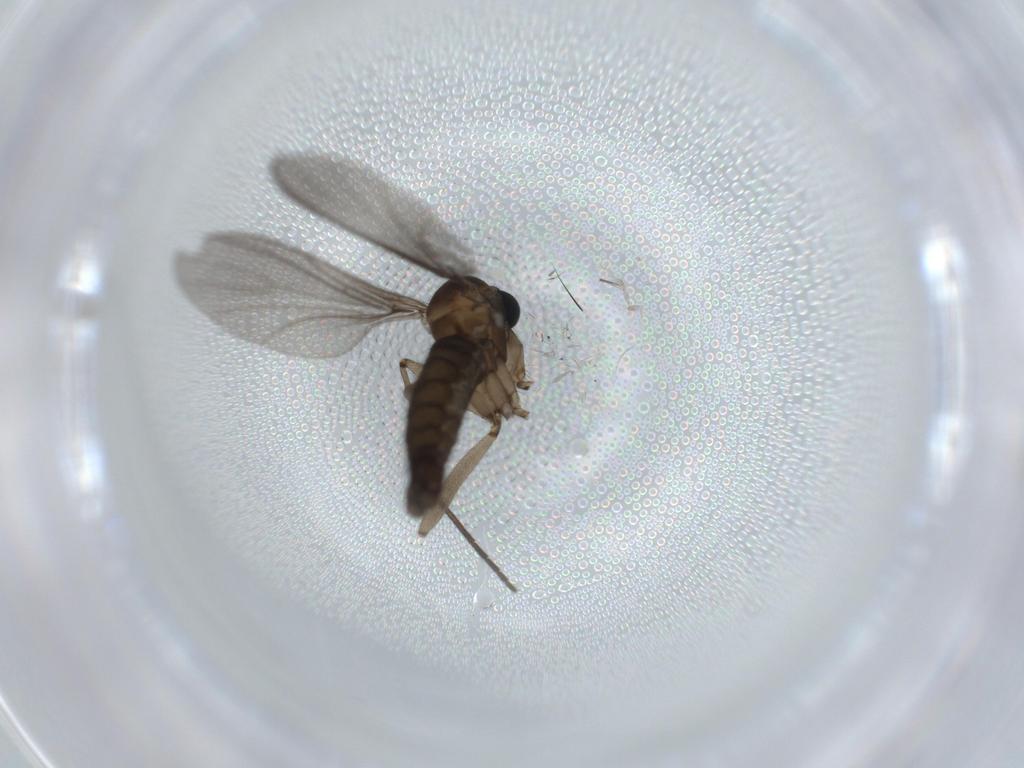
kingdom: Animalia
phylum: Arthropoda
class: Insecta
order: Diptera
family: Sciaridae
